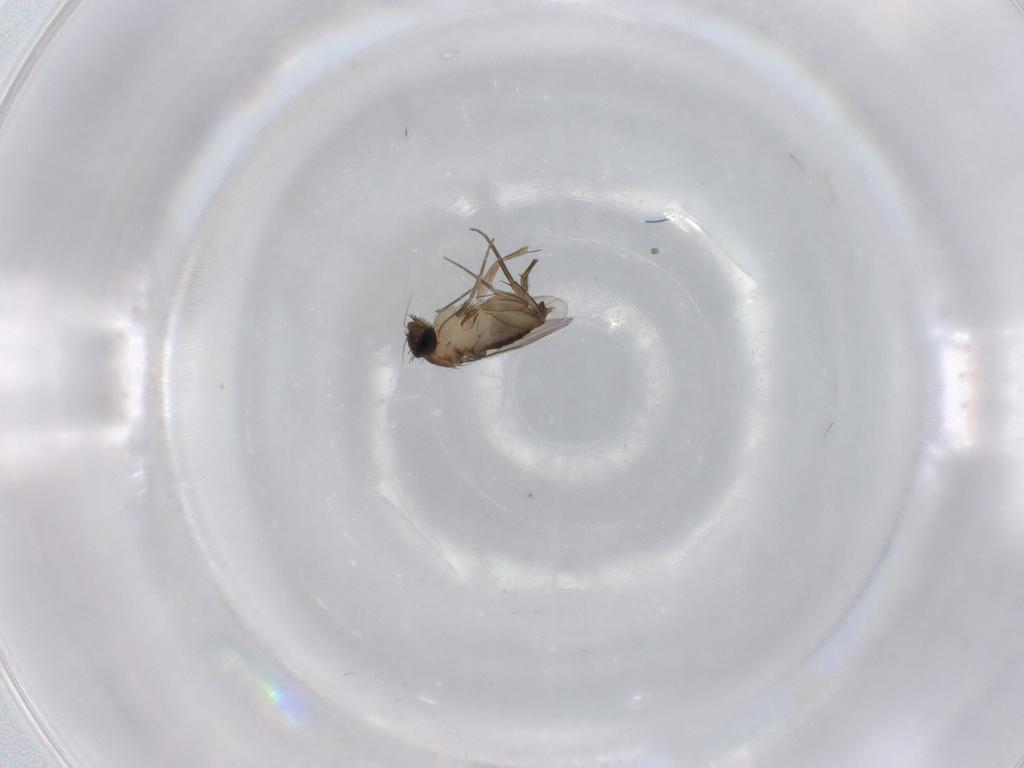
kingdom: Animalia
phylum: Arthropoda
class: Insecta
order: Diptera
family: Phoridae
